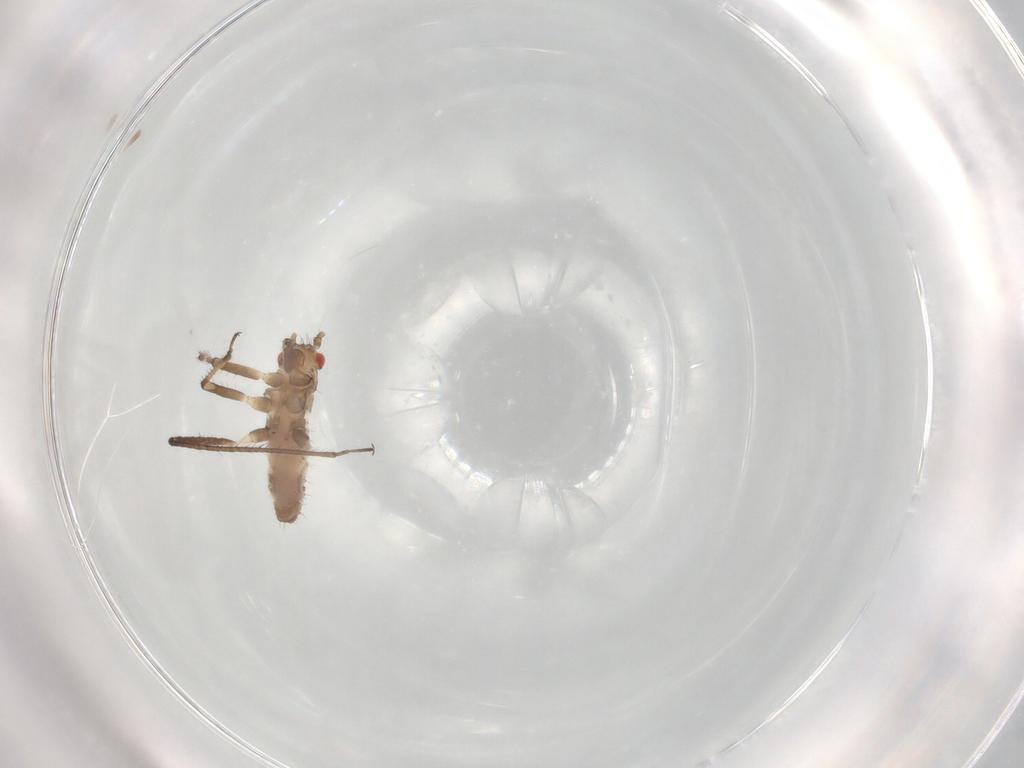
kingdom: Animalia
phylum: Arthropoda
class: Insecta
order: Hemiptera
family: Aphididae
